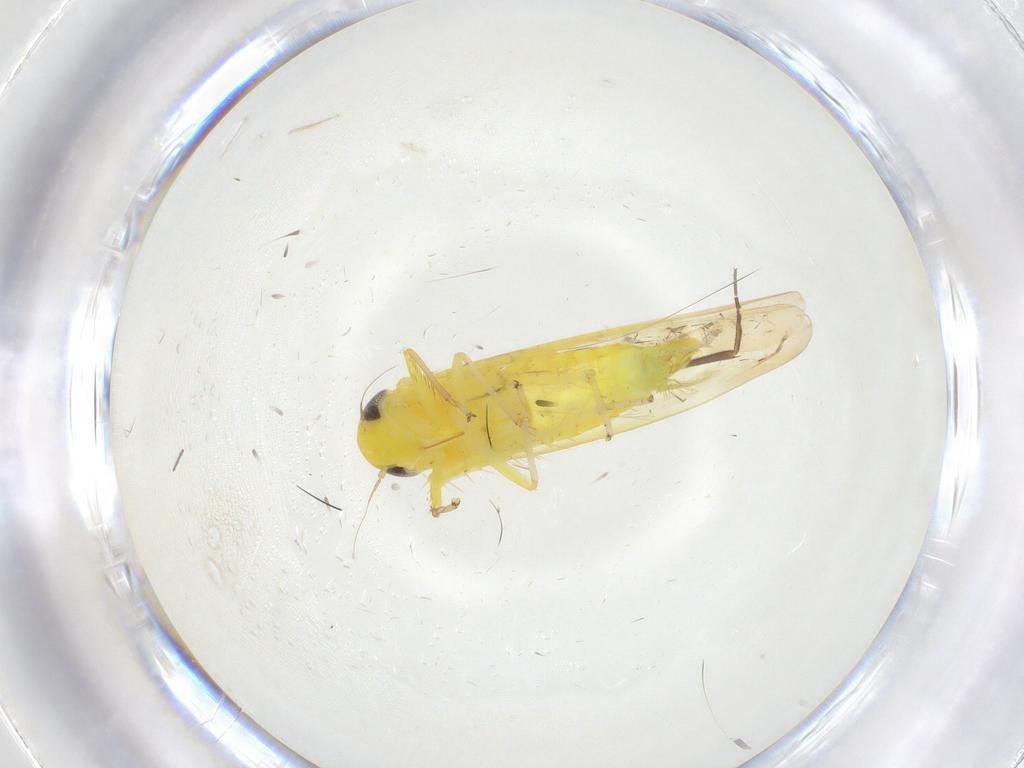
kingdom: Animalia
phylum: Arthropoda
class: Insecta
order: Hemiptera
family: Cicadellidae
